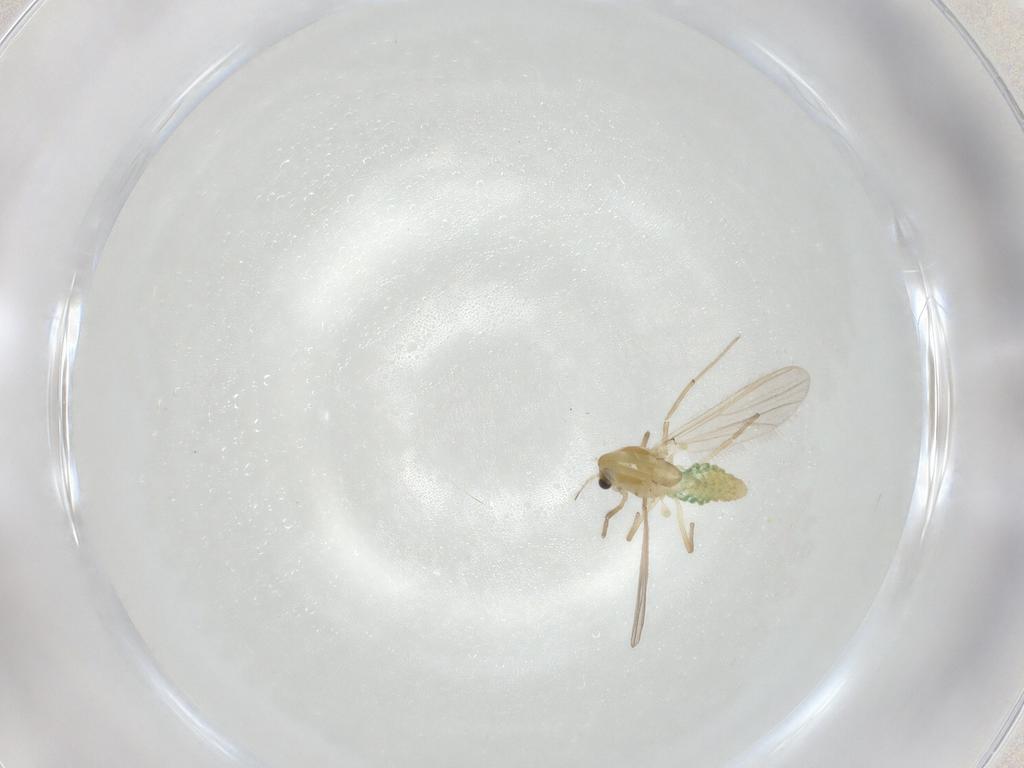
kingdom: Animalia
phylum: Arthropoda
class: Insecta
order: Diptera
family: Chironomidae
